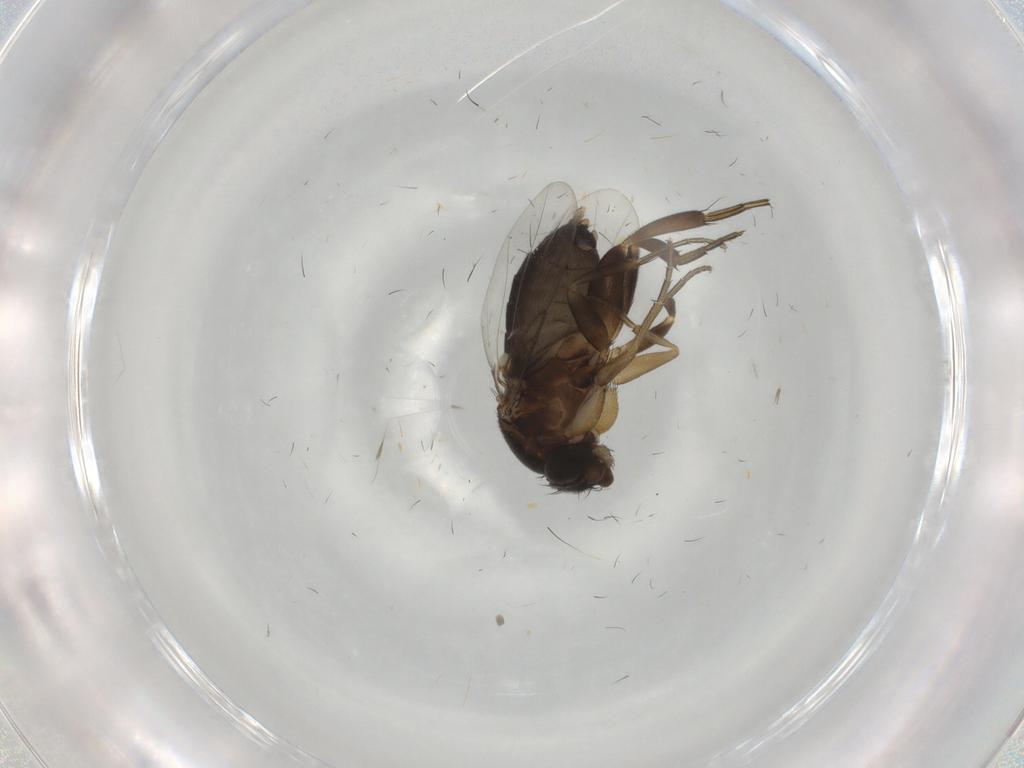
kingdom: Animalia
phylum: Arthropoda
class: Insecta
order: Diptera
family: Phoridae
